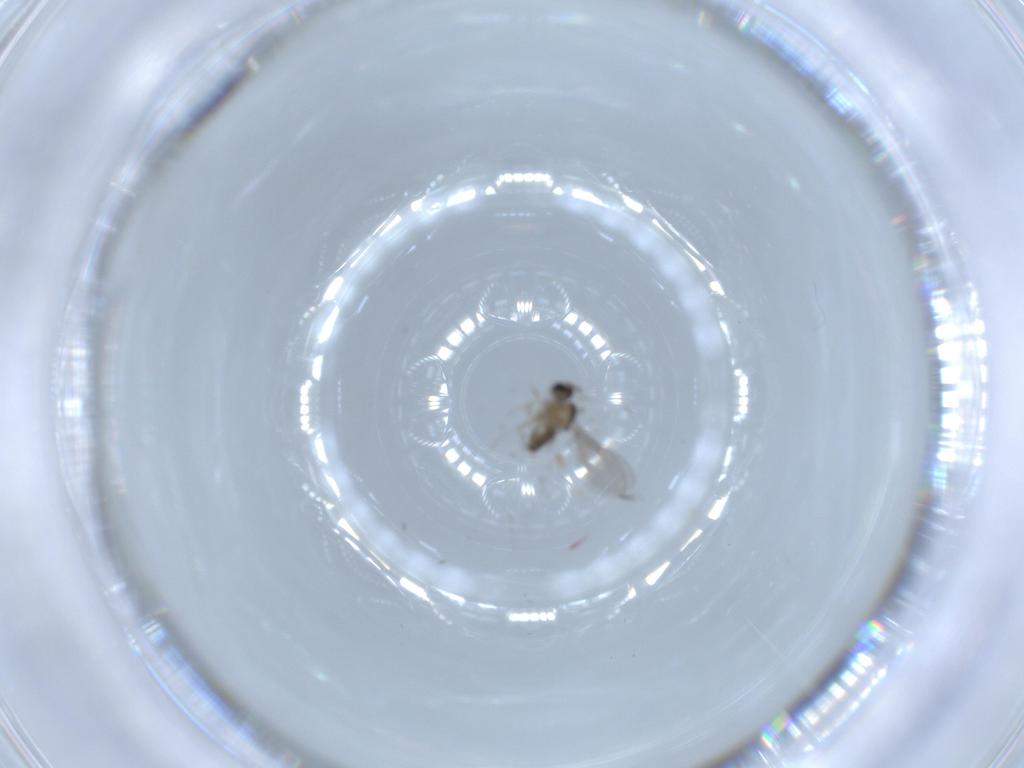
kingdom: Animalia
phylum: Arthropoda
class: Insecta
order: Diptera
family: Cecidomyiidae
